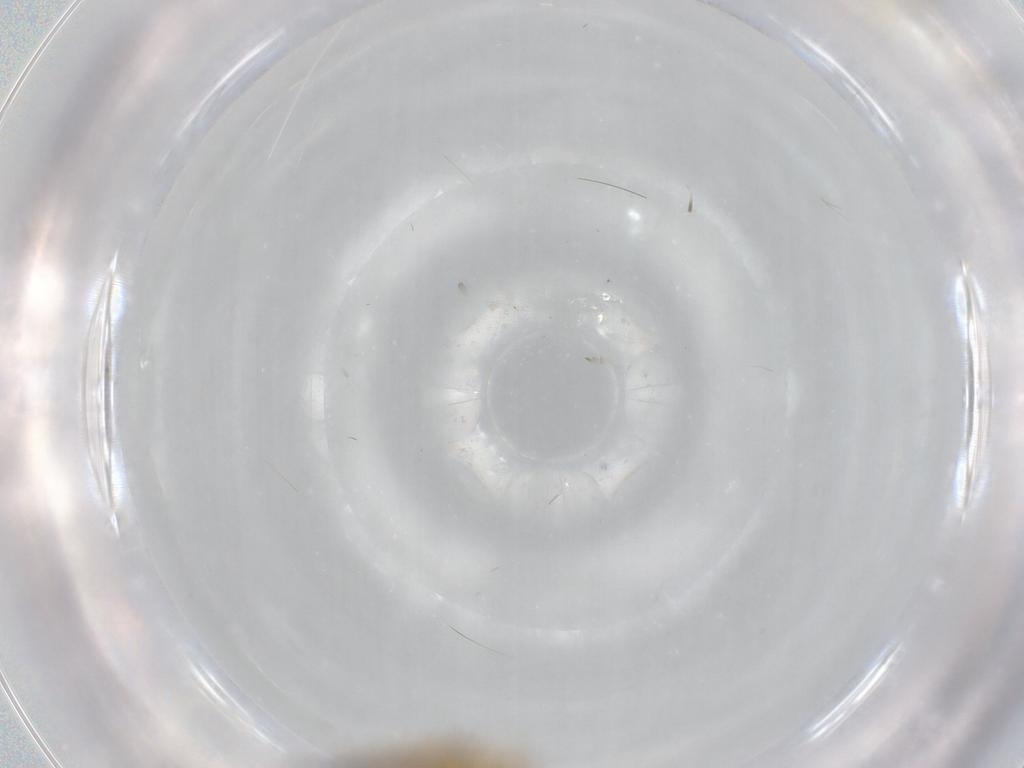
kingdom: Animalia
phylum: Arthropoda
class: Insecta
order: Diptera
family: Chironomidae
